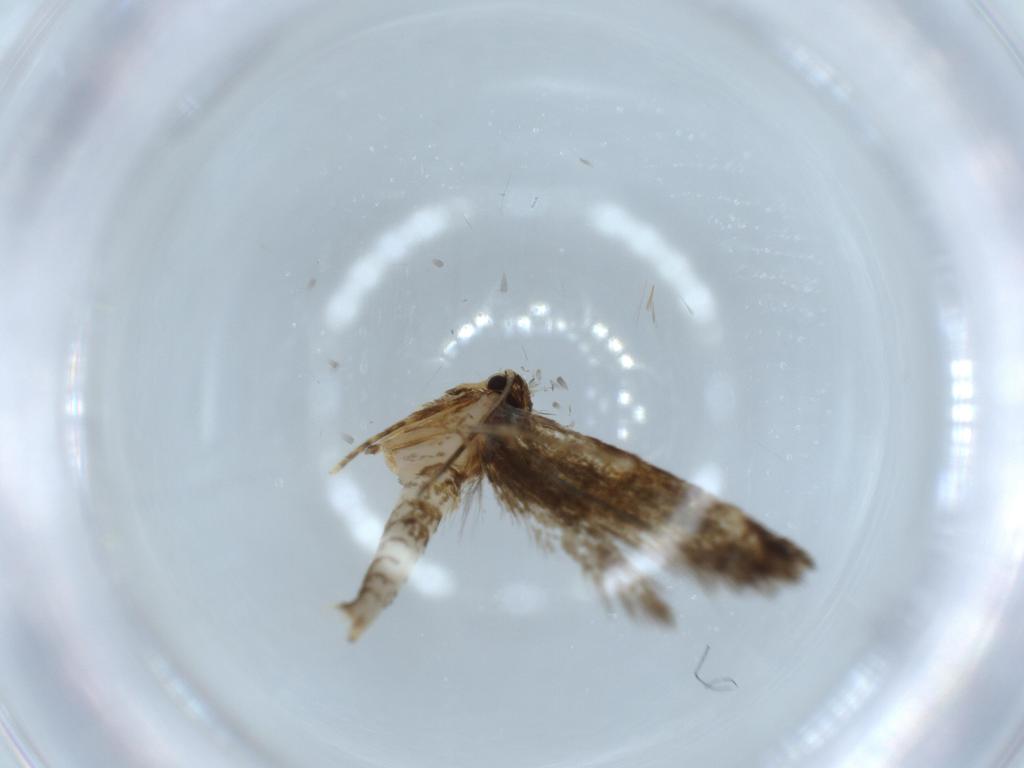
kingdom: Animalia
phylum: Arthropoda
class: Insecta
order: Lepidoptera
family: Tineidae
